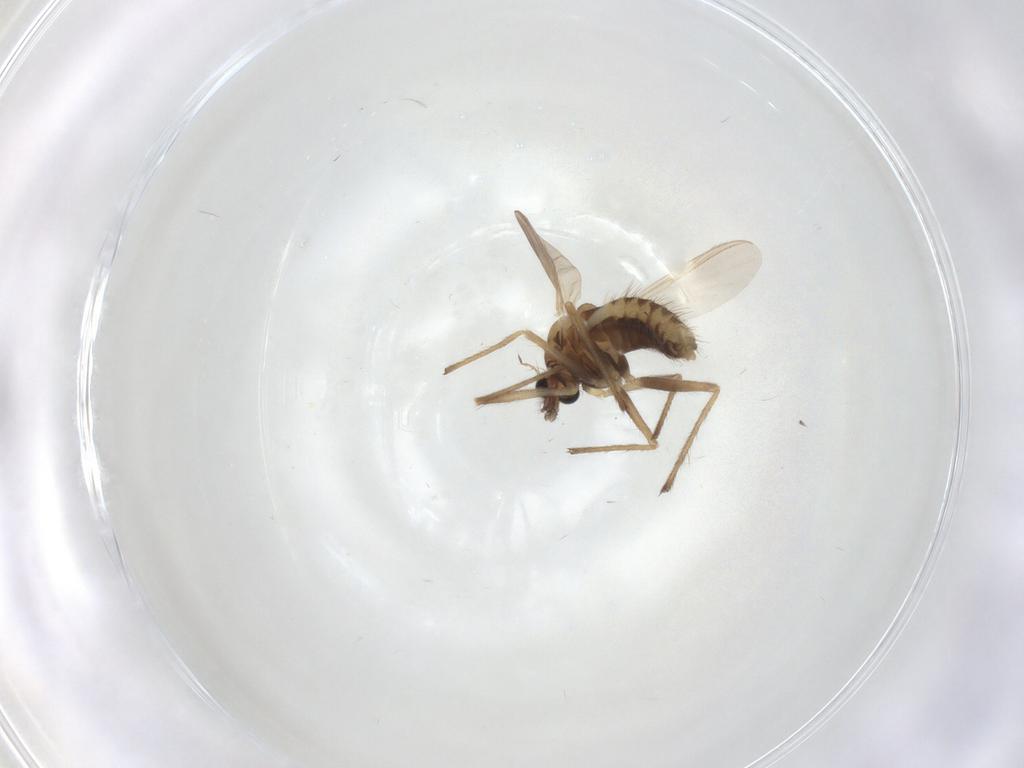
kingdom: Animalia
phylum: Arthropoda
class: Insecta
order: Diptera
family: Chironomidae
